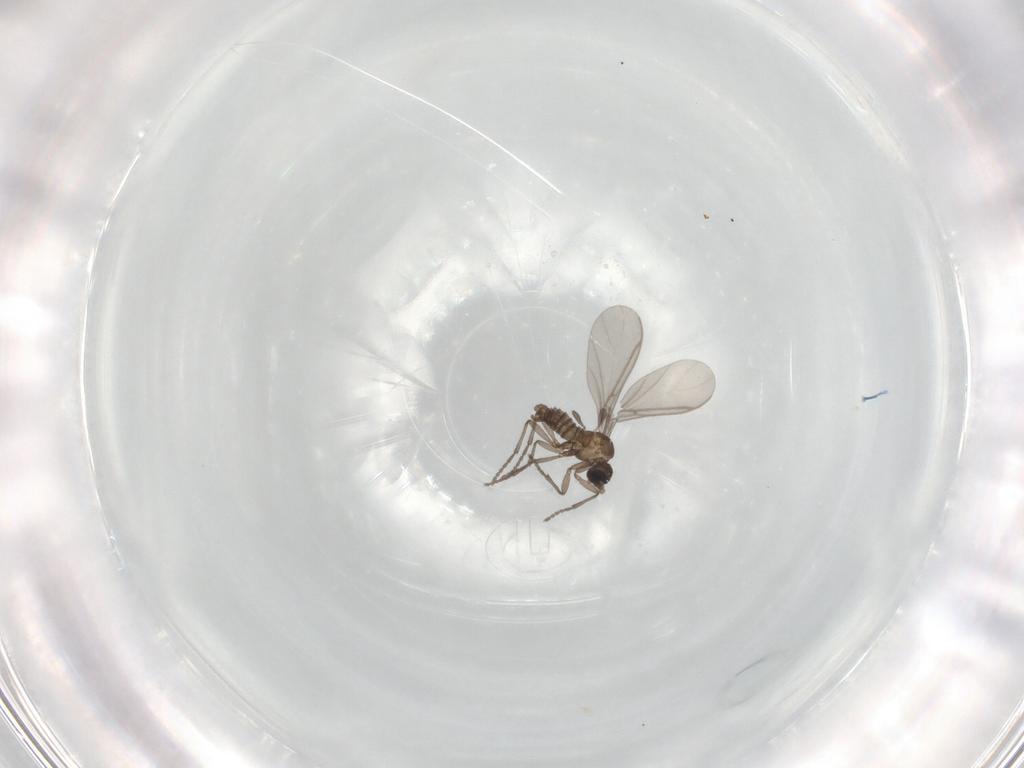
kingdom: Animalia
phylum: Arthropoda
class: Insecta
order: Diptera
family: Sciaridae
